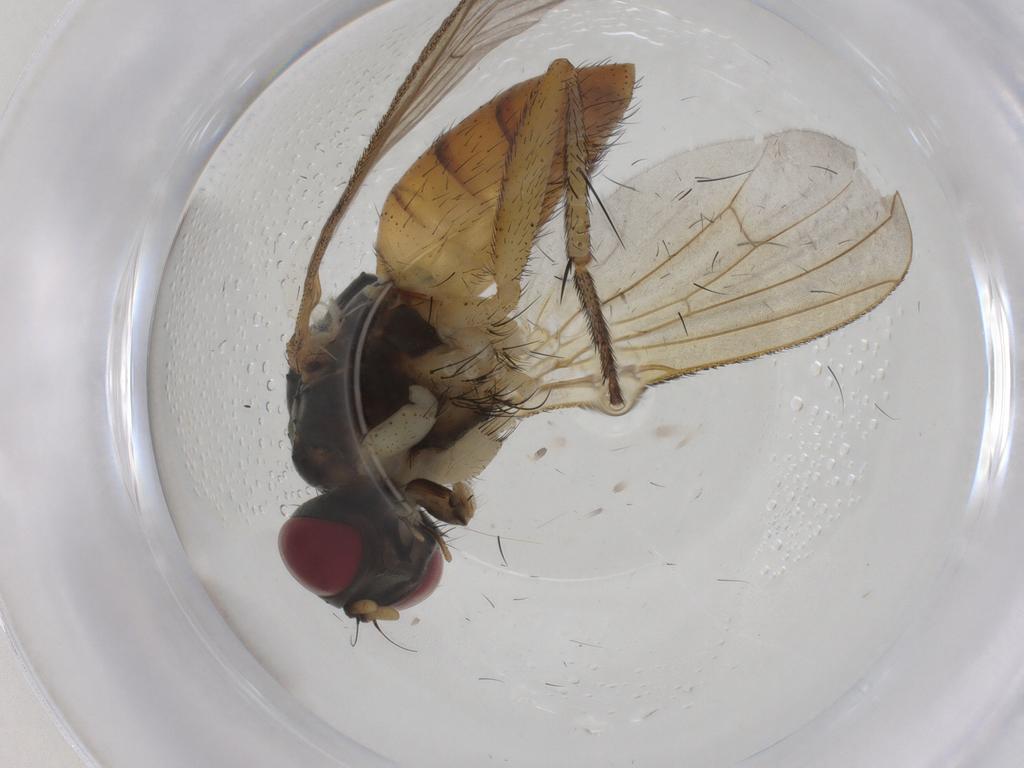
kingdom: Animalia
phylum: Arthropoda
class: Insecta
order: Diptera
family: Muscidae
